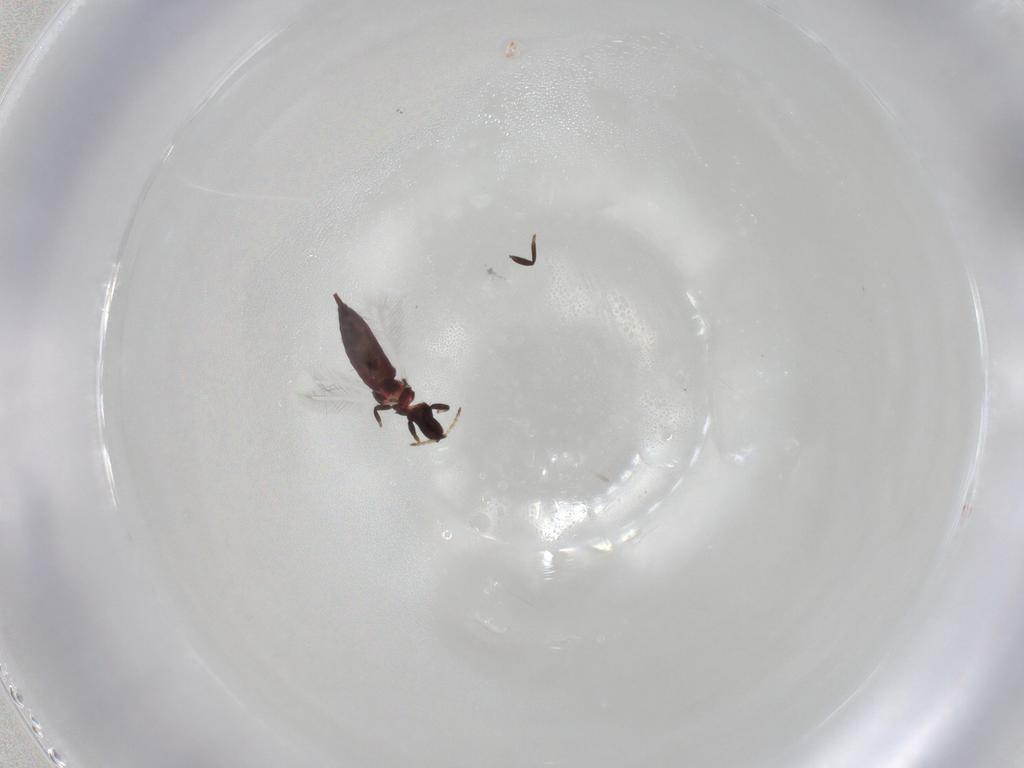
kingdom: Animalia
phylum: Arthropoda
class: Insecta
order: Thysanoptera
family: Phlaeothripidae
